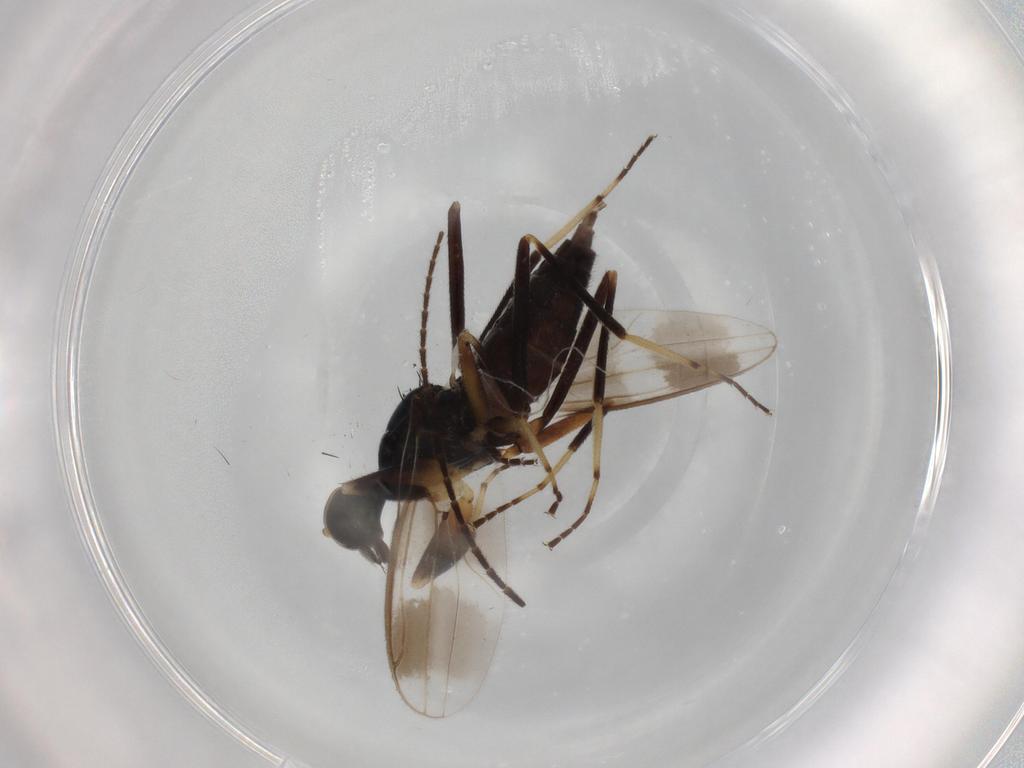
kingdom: Animalia
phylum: Arthropoda
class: Insecta
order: Diptera
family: Hybotidae
